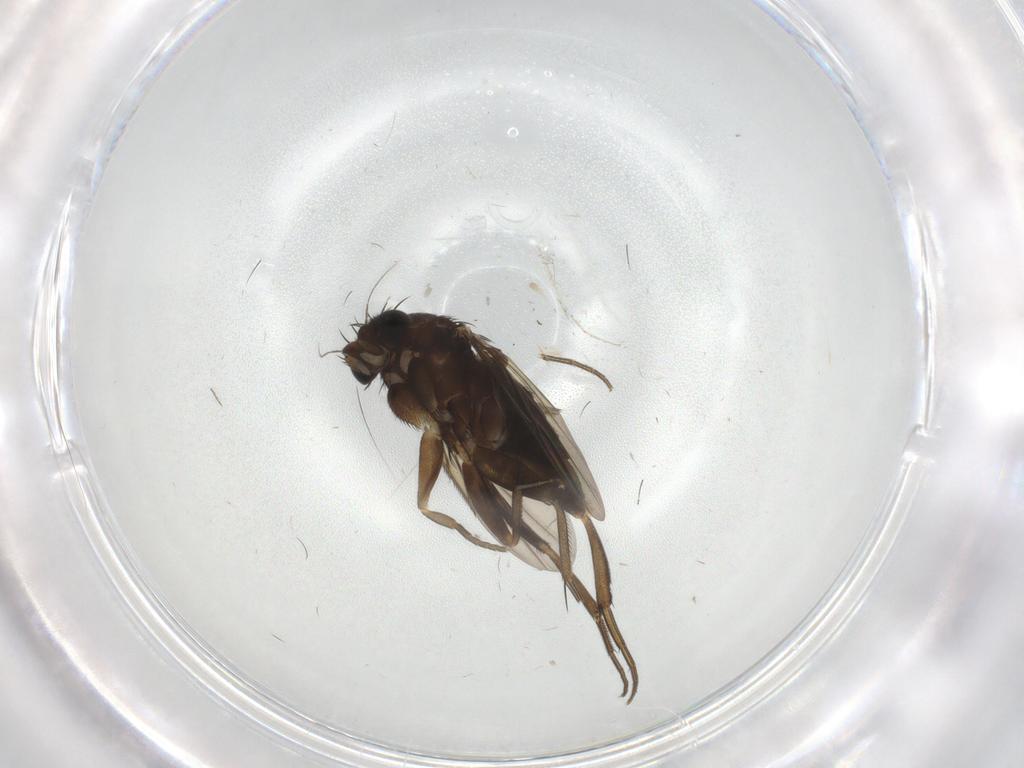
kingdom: Animalia
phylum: Arthropoda
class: Insecta
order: Diptera
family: Phoridae
